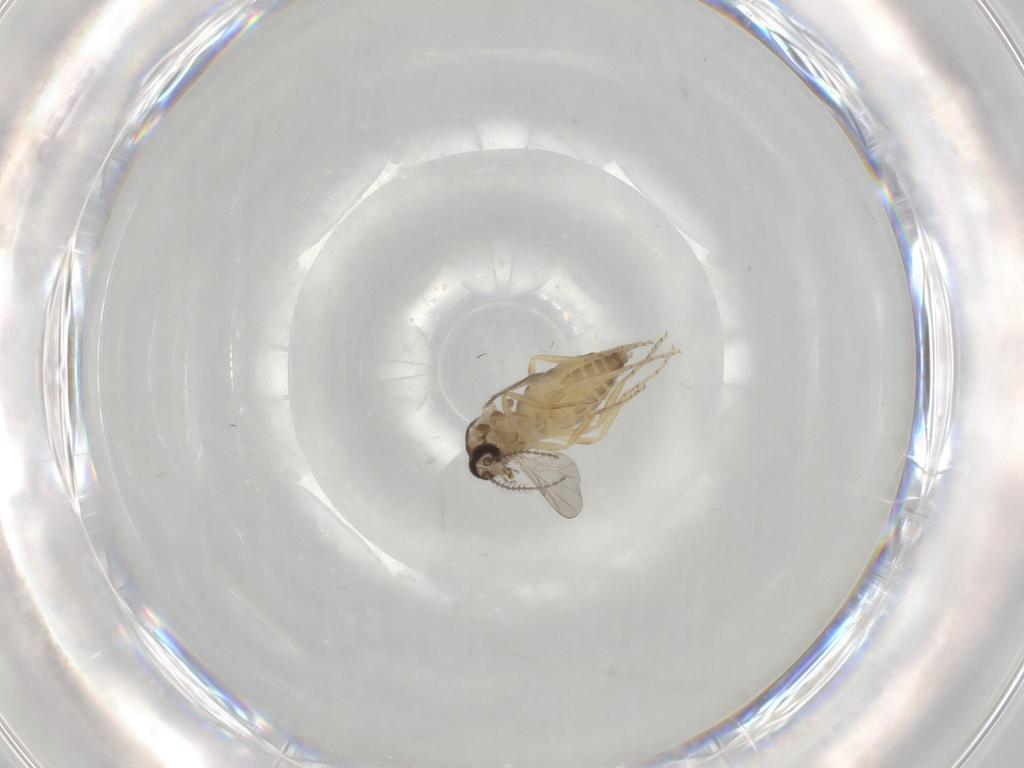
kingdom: Animalia
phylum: Arthropoda
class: Insecta
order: Diptera
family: Ceratopogonidae
